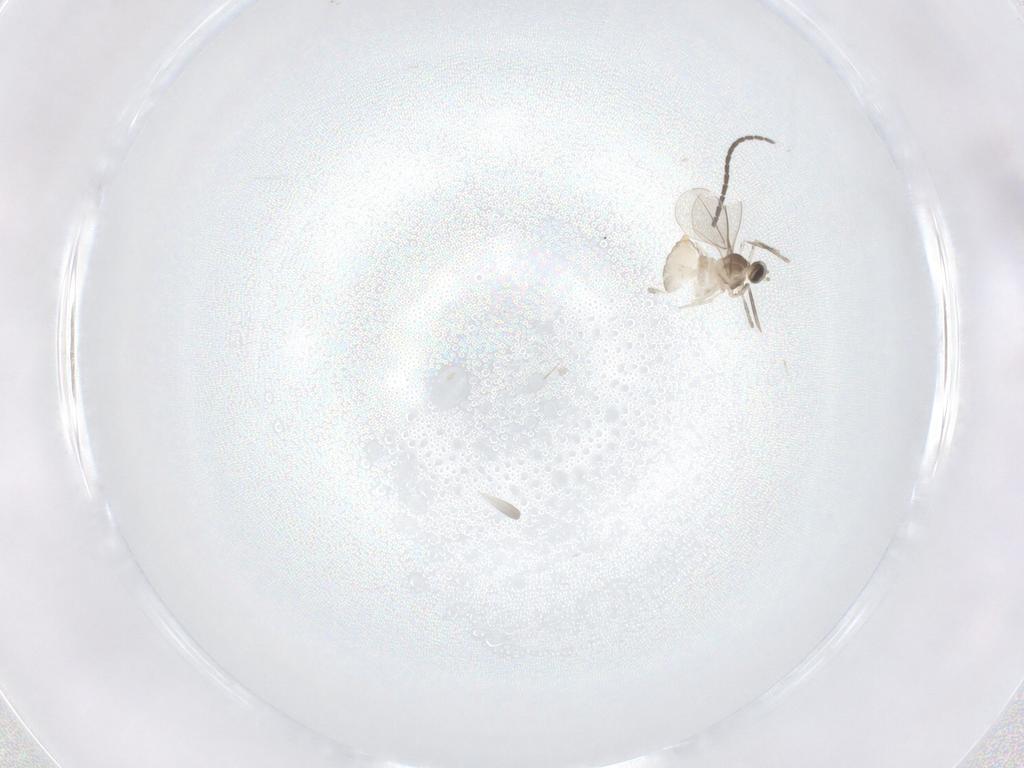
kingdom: Animalia
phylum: Arthropoda
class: Insecta
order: Diptera
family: Cecidomyiidae
